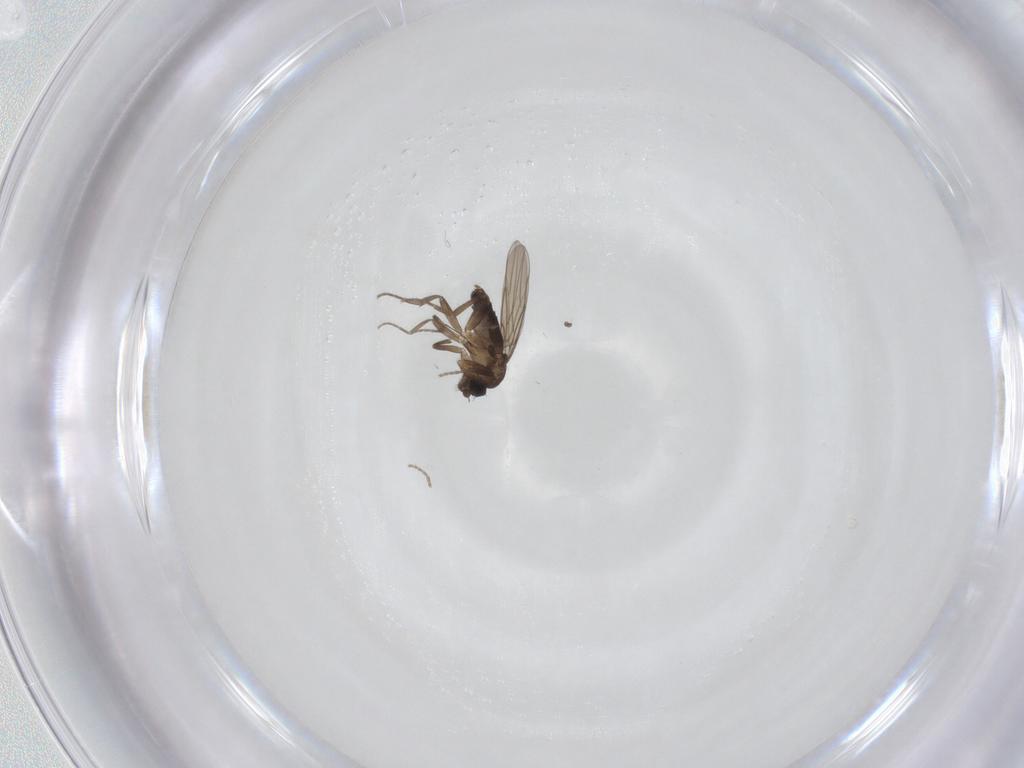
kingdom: Animalia
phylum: Arthropoda
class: Insecta
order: Diptera
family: Phoridae
